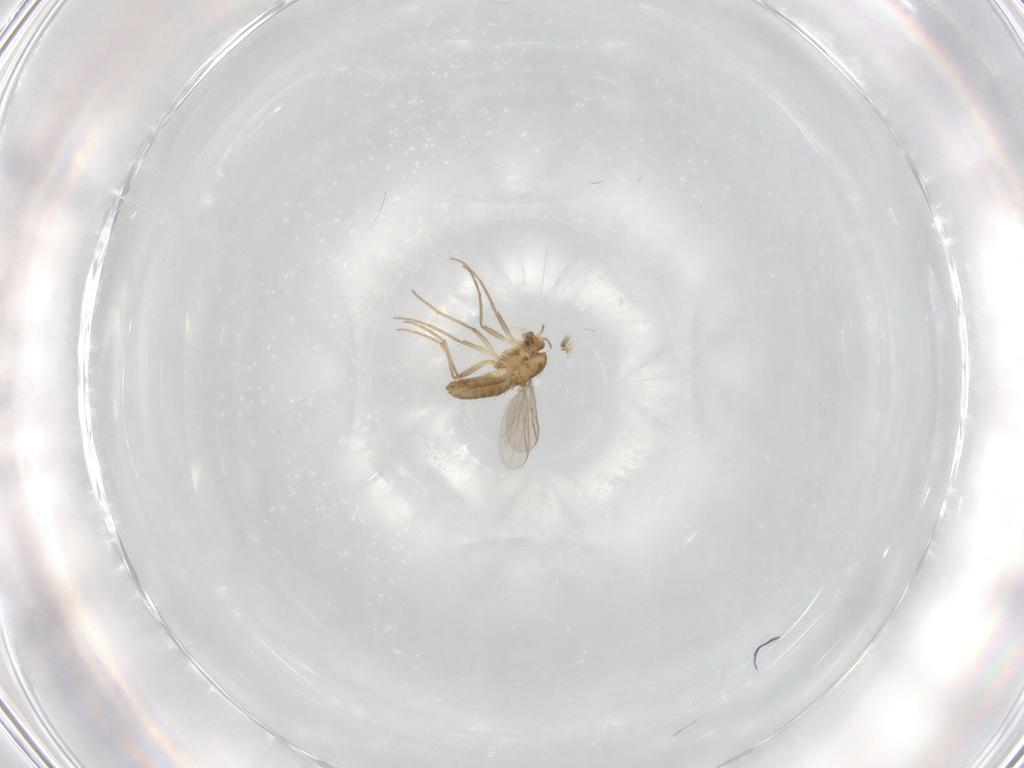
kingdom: Animalia
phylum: Arthropoda
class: Insecta
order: Diptera
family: Chironomidae
